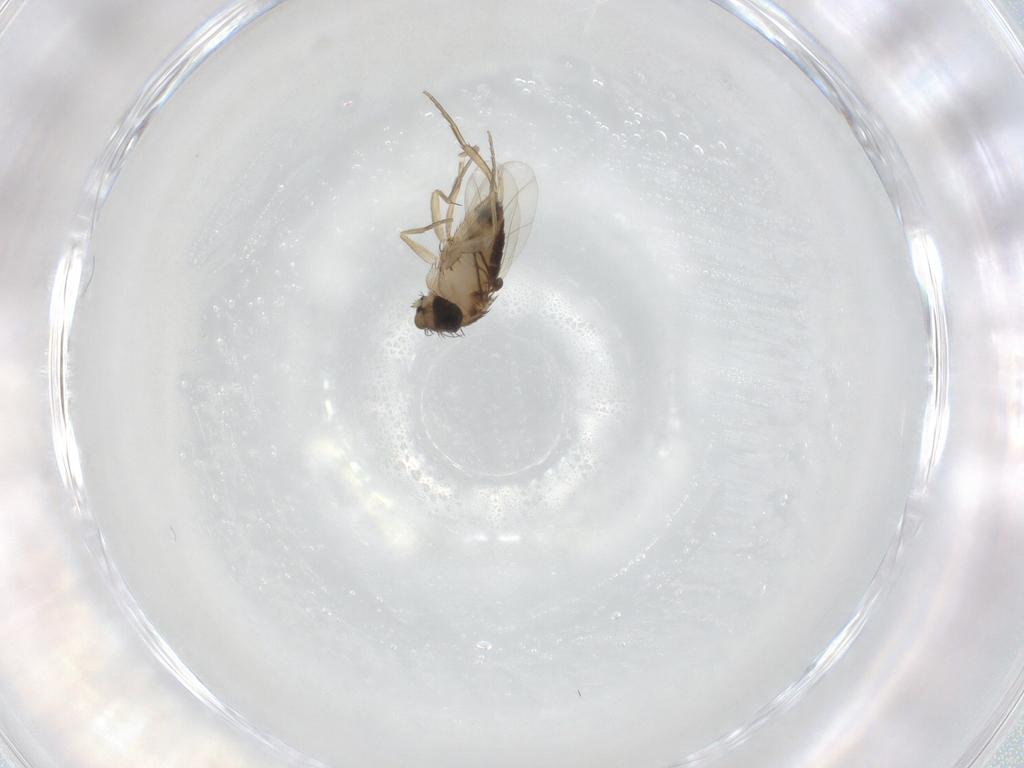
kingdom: Animalia
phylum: Arthropoda
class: Insecta
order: Diptera
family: Phoridae
